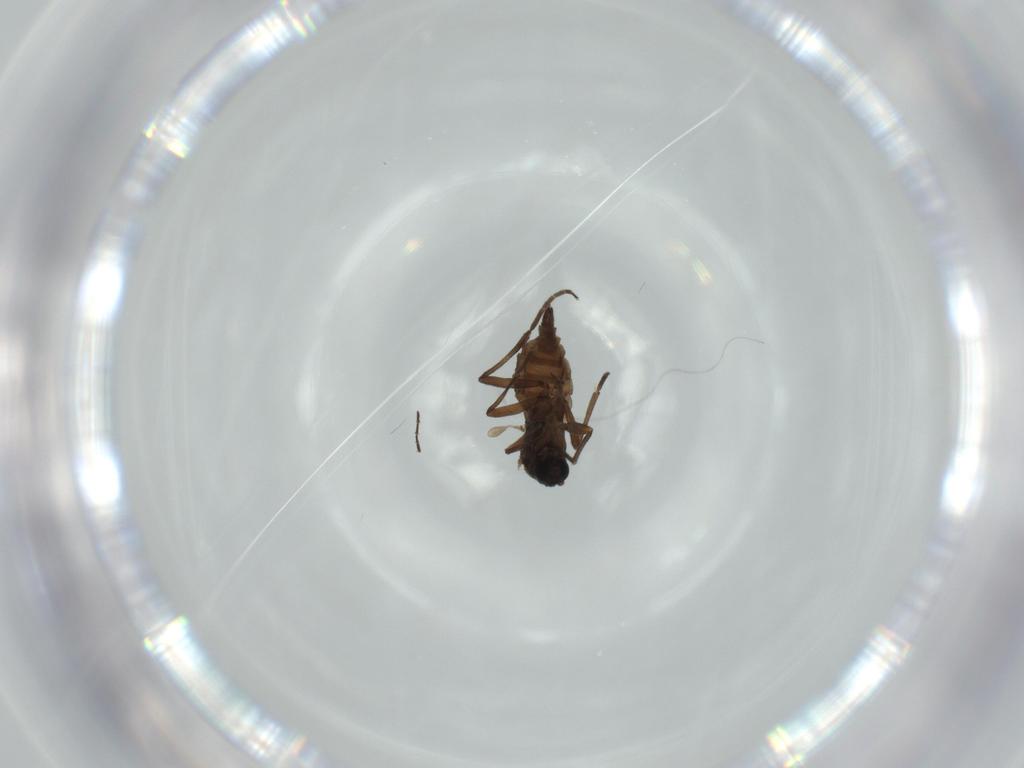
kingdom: Animalia
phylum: Arthropoda
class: Insecta
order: Diptera
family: Sciaridae
